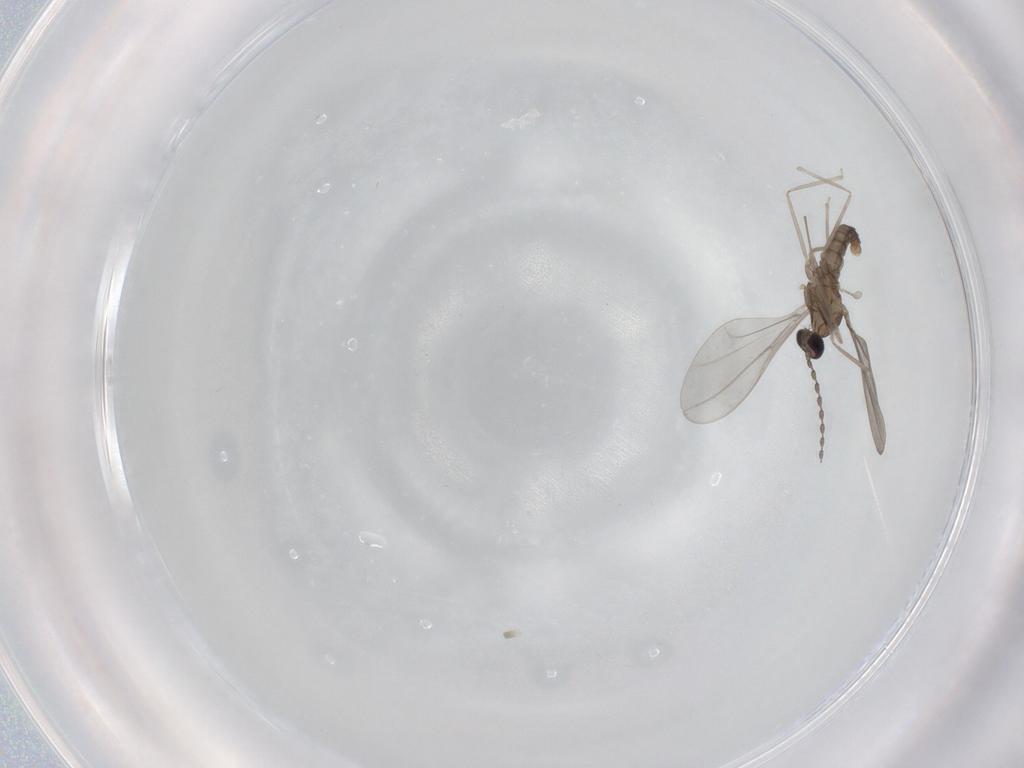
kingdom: Animalia
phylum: Arthropoda
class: Insecta
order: Diptera
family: Cecidomyiidae
